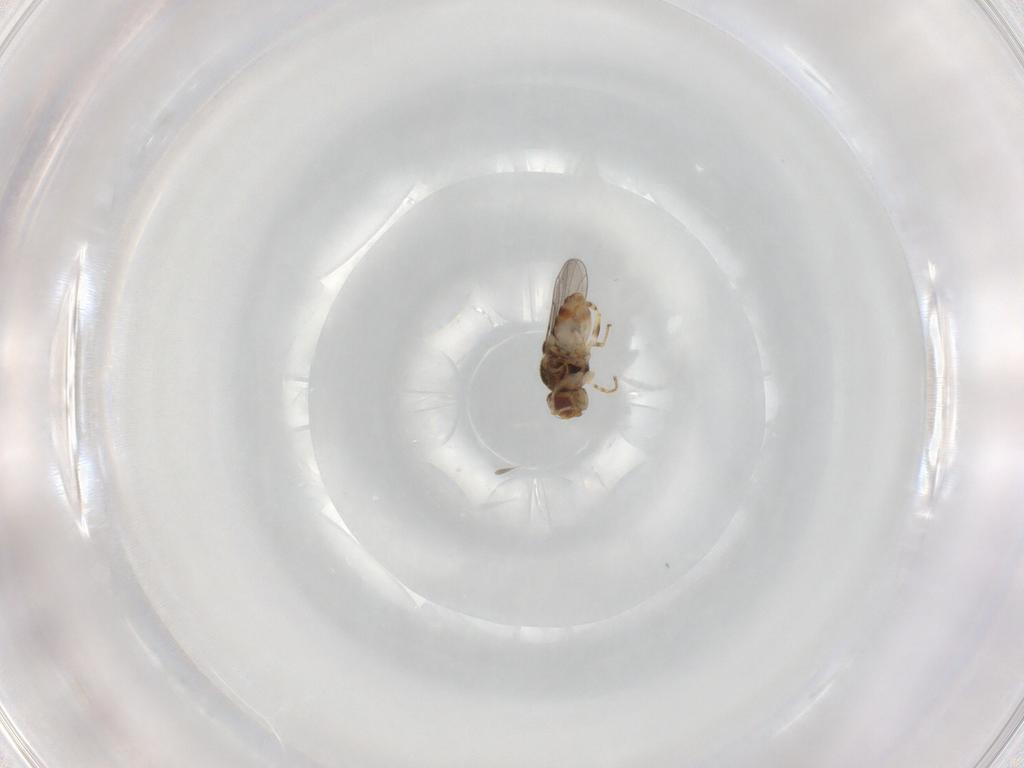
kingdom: Animalia
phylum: Arthropoda
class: Insecta
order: Diptera
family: Chloropidae
